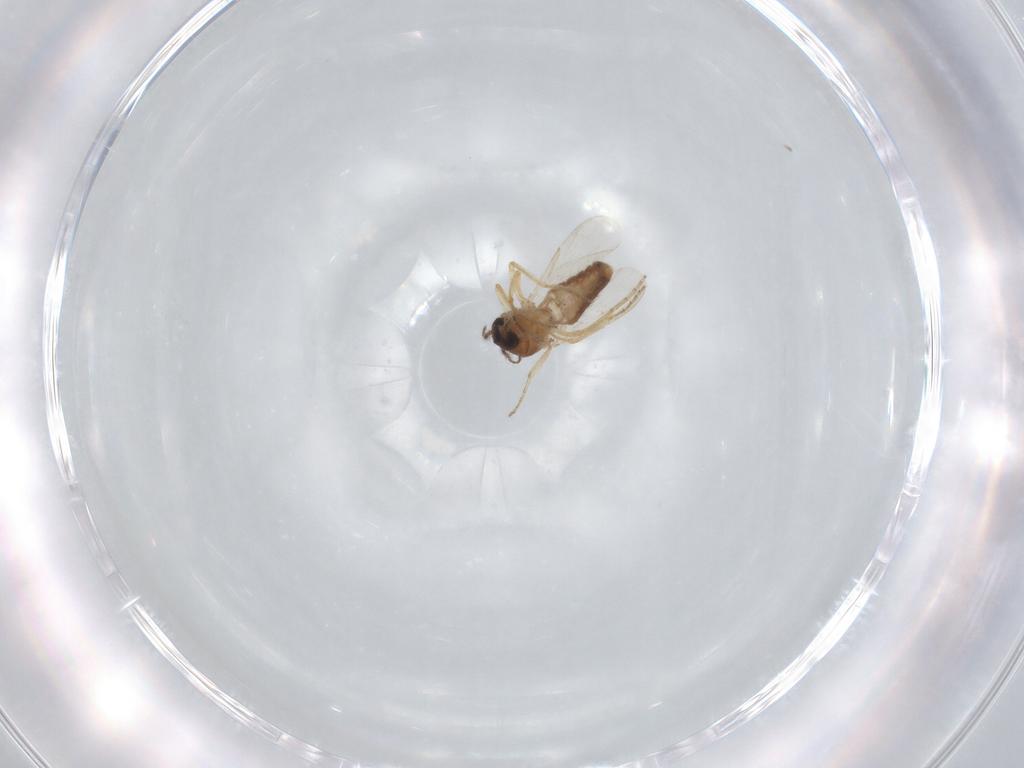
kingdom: Animalia
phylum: Arthropoda
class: Insecta
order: Diptera
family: Ceratopogonidae
